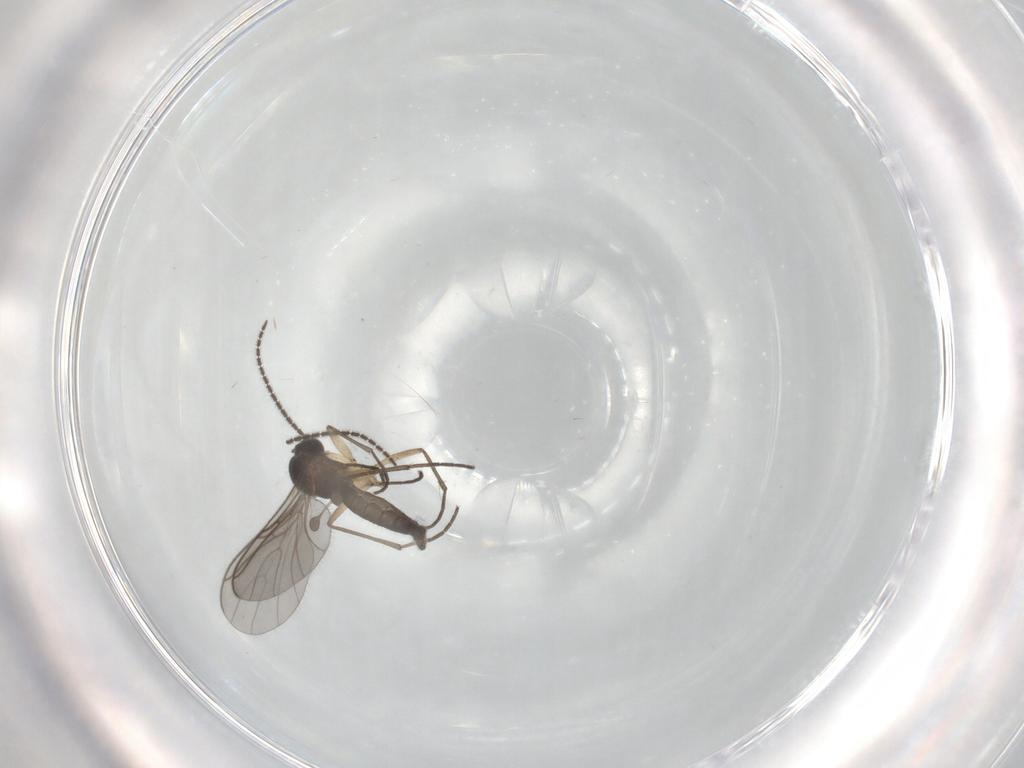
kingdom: Animalia
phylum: Arthropoda
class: Insecta
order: Diptera
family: Sciaridae
